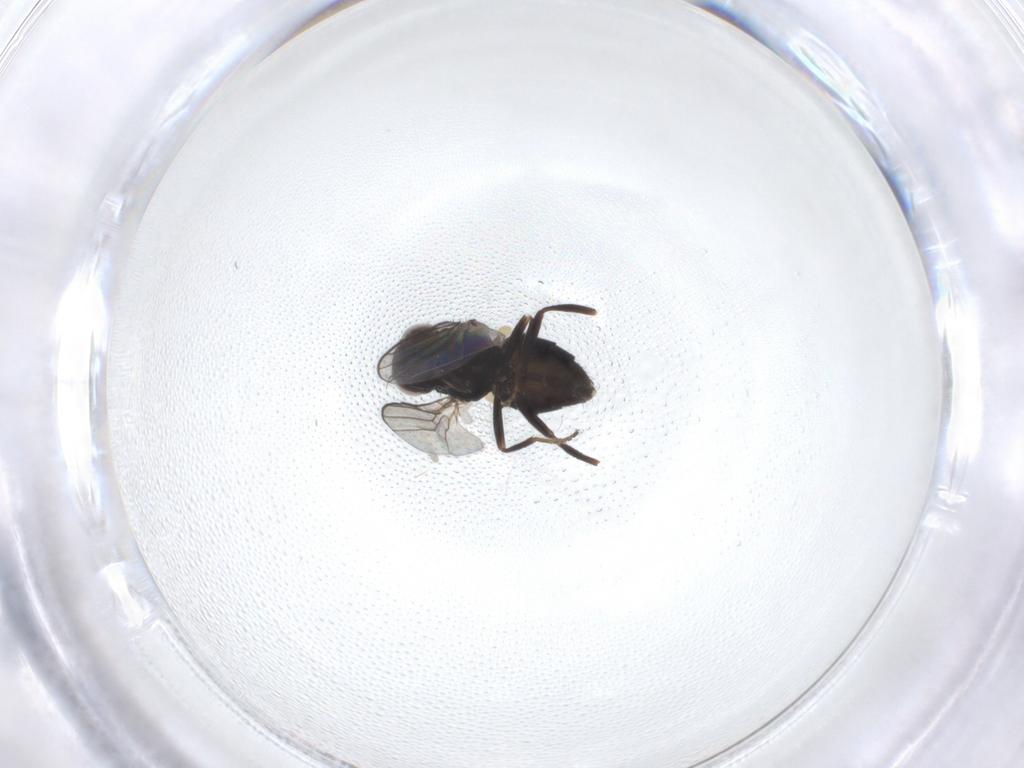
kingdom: Animalia
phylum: Arthropoda
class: Insecta
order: Diptera
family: Chloropidae
